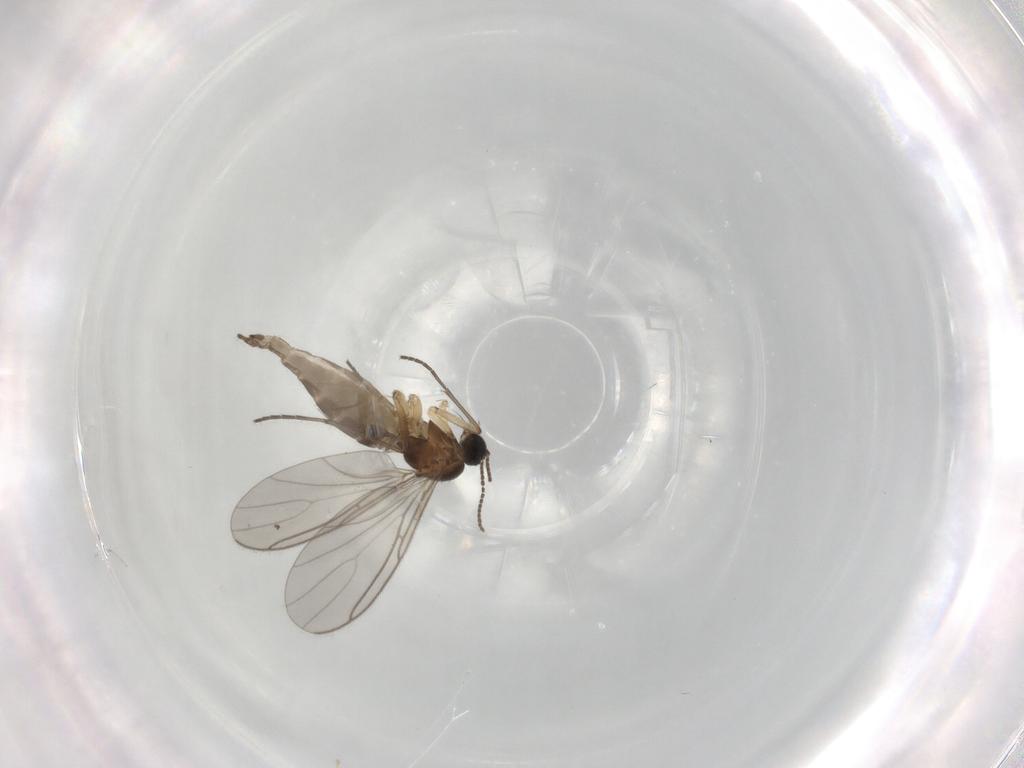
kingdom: Animalia
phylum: Arthropoda
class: Insecta
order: Diptera
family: Sciaridae
